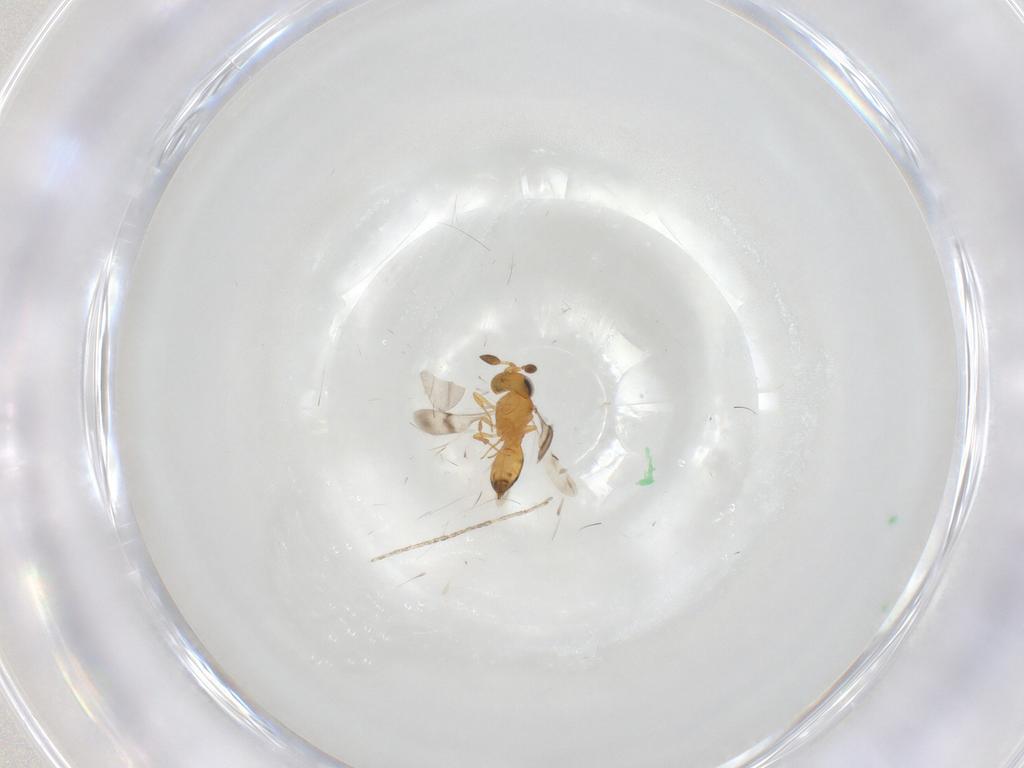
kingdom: Animalia
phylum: Arthropoda
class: Insecta
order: Hymenoptera
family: Scelionidae
